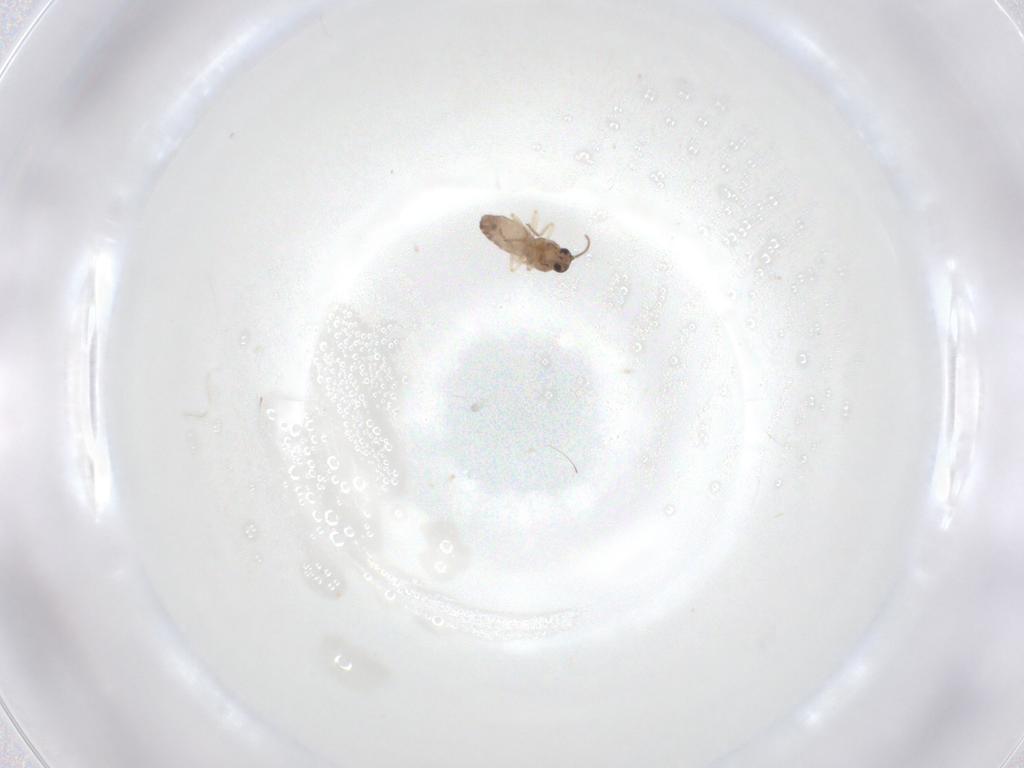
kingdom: Animalia
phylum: Arthropoda
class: Insecta
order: Diptera
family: Ceratopogonidae
